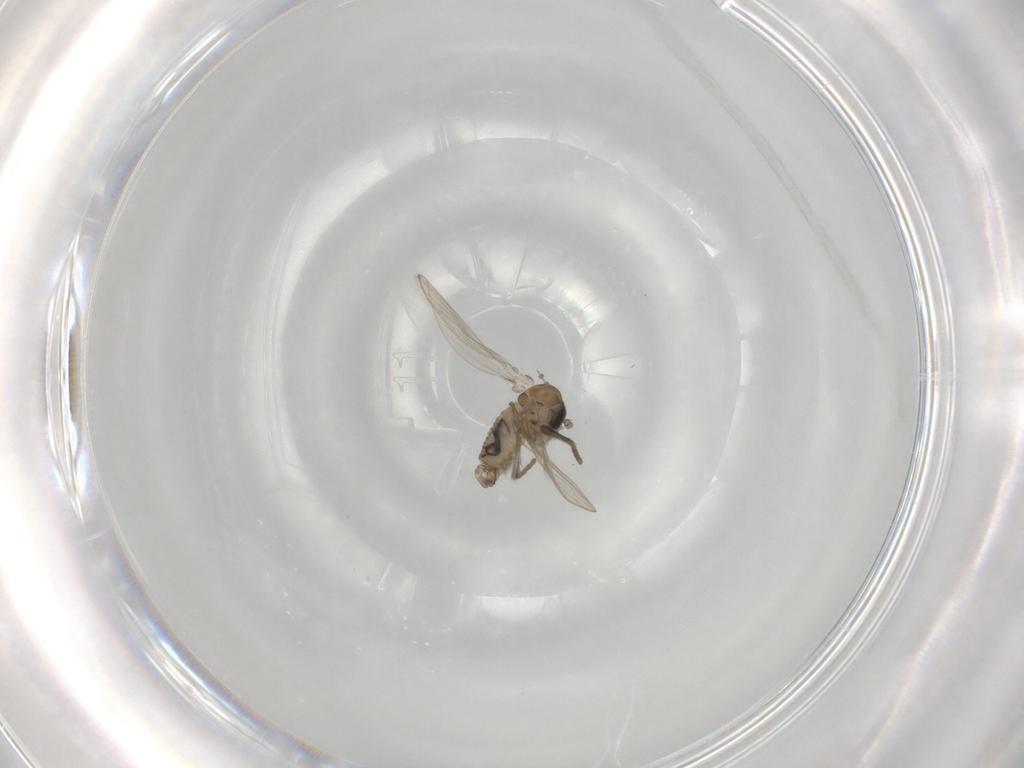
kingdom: Animalia
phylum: Arthropoda
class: Insecta
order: Diptera
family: Psychodidae
